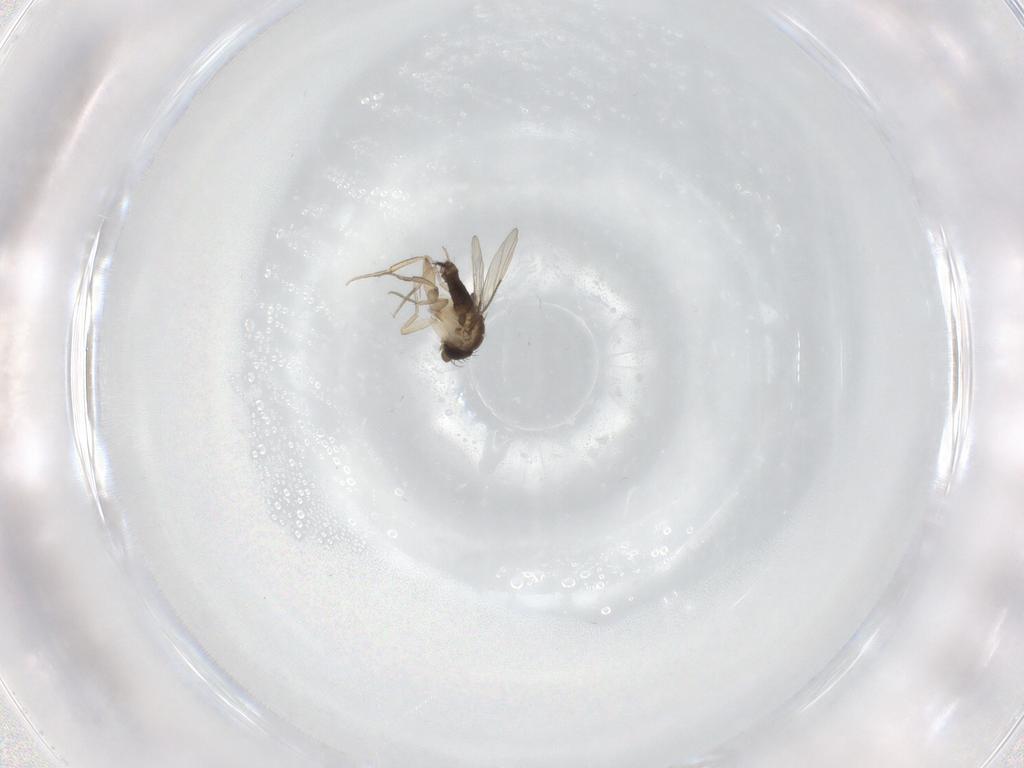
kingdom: Animalia
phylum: Arthropoda
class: Insecta
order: Diptera
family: Phoridae
